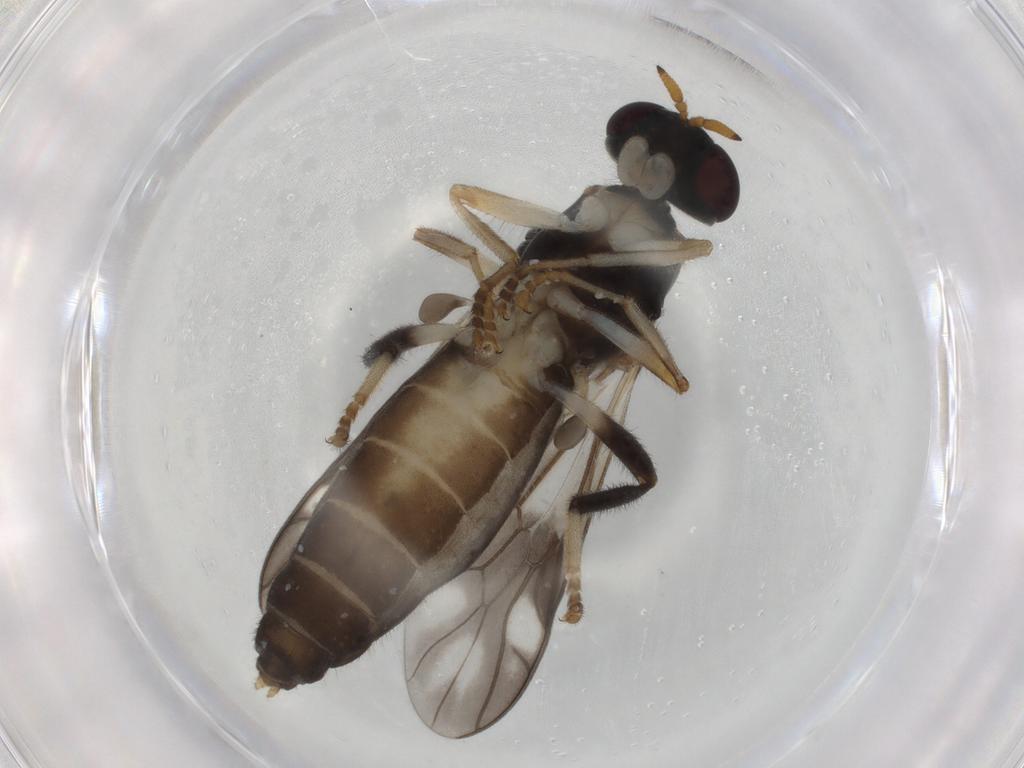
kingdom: Animalia
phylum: Arthropoda
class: Insecta
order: Diptera
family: Stratiomyidae
